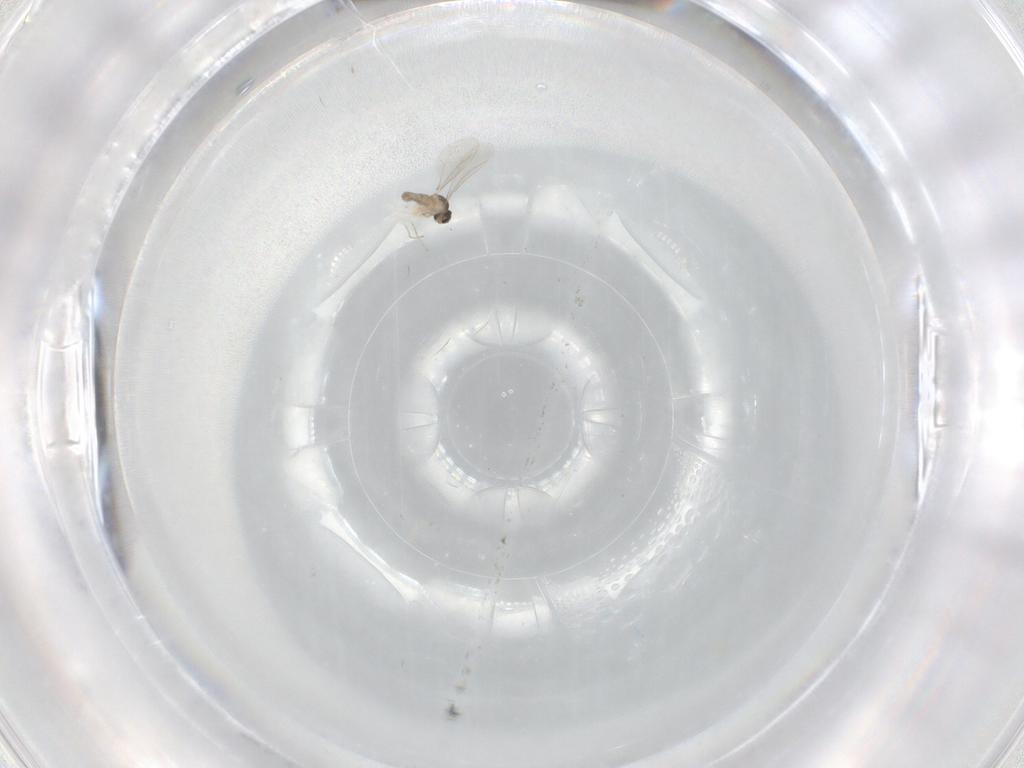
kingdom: Animalia
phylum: Arthropoda
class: Insecta
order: Diptera
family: Cecidomyiidae
